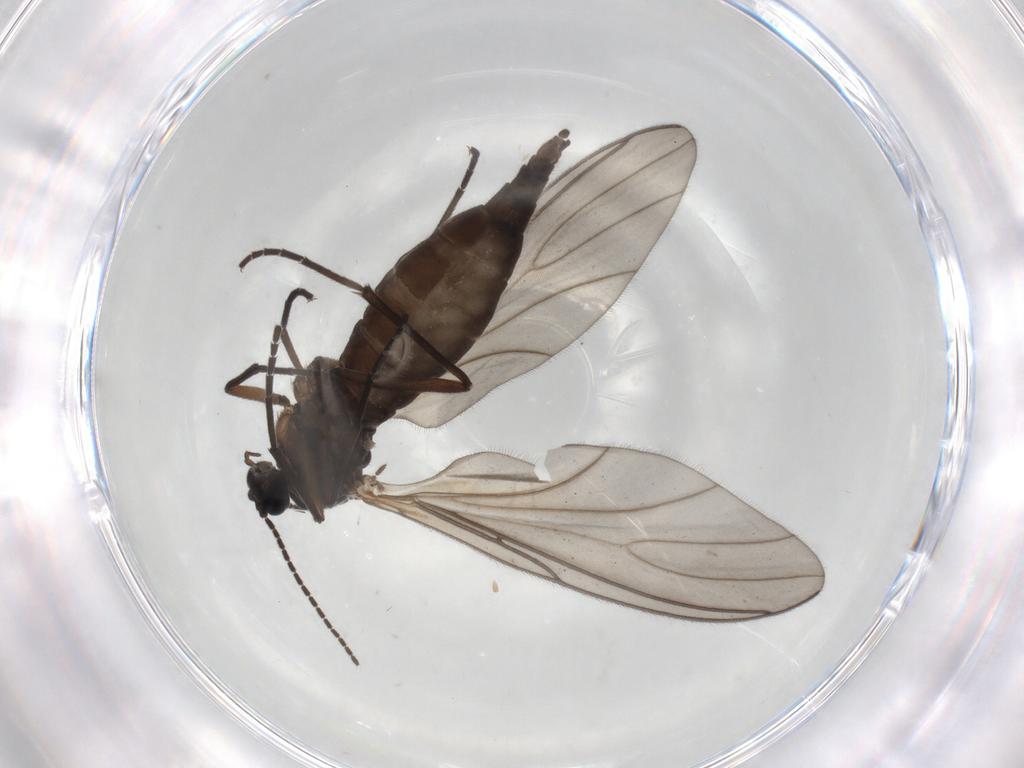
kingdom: Animalia
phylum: Arthropoda
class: Insecta
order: Diptera
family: Sciaridae
